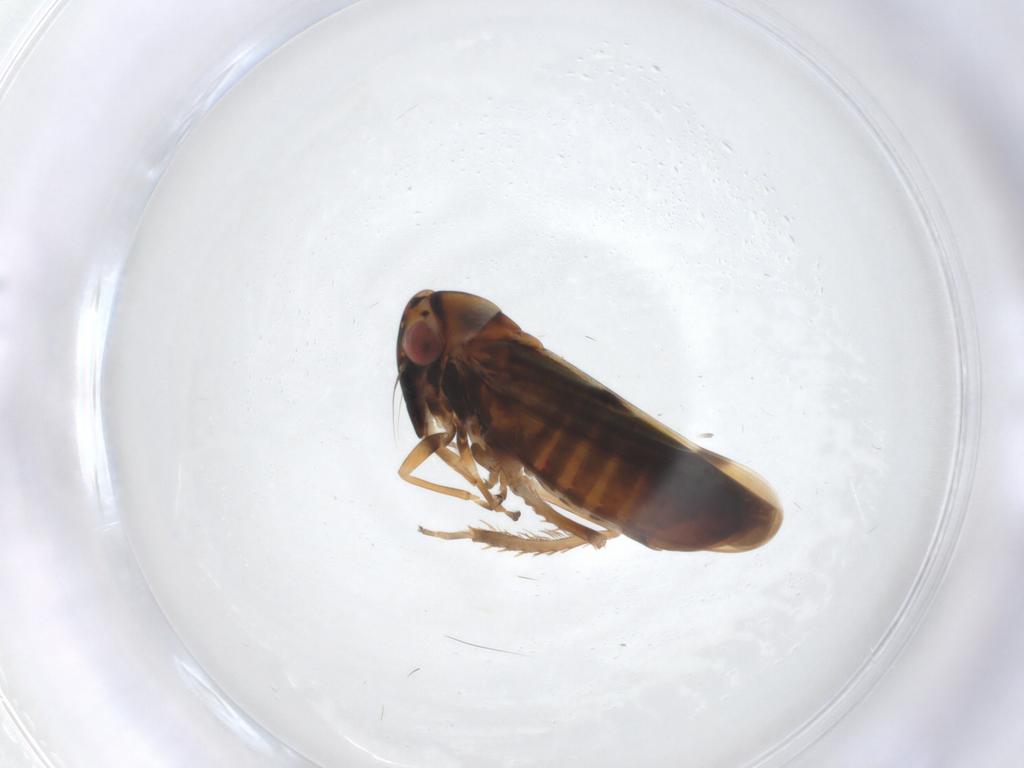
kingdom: Animalia
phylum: Arthropoda
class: Insecta
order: Hemiptera
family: Cicadellidae
